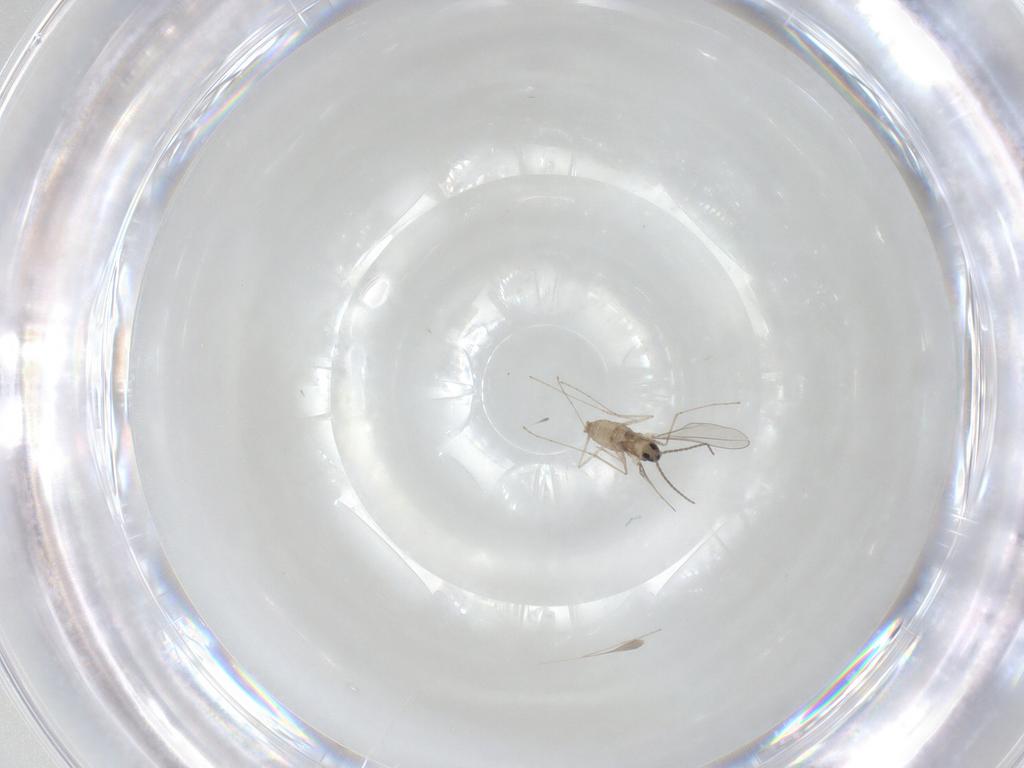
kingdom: Animalia
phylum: Arthropoda
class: Insecta
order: Diptera
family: Cecidomyiidae
